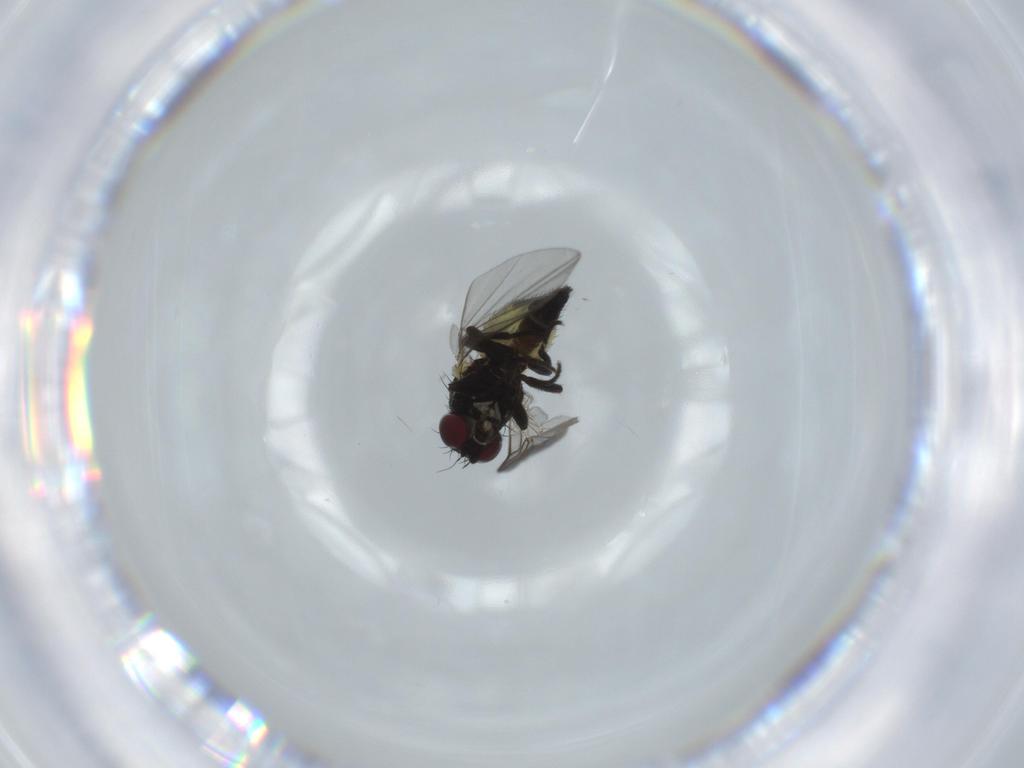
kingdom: Animalia
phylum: Arthropoda
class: Insecta
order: Diptera
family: Agromyzidae
